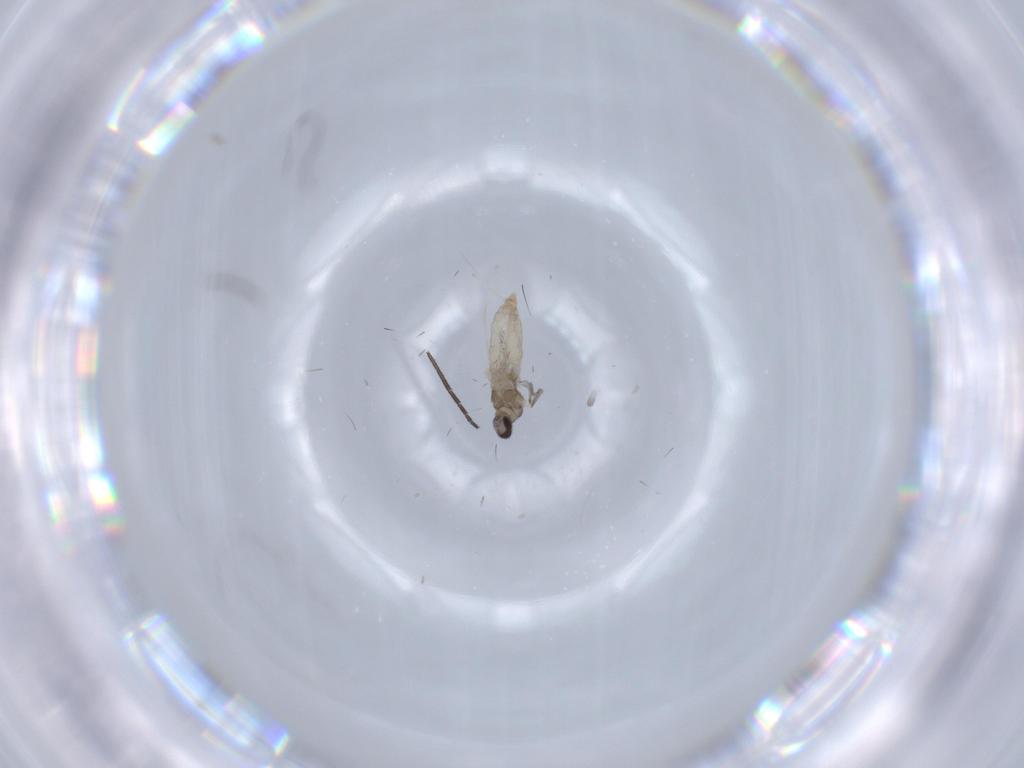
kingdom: Animalia
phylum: Arthropoda
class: Insecta
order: Diptera
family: Cecidomyiidae
